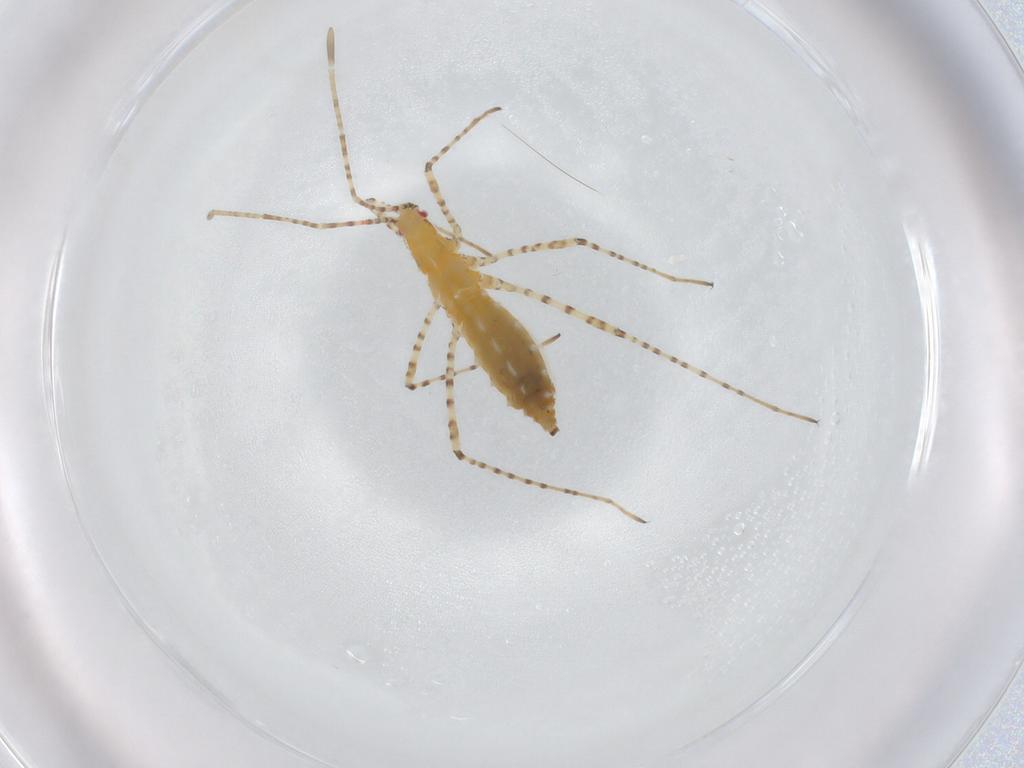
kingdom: Animalia
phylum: Arthropoda
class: Insecta
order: Hemiptera
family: Berytidae
